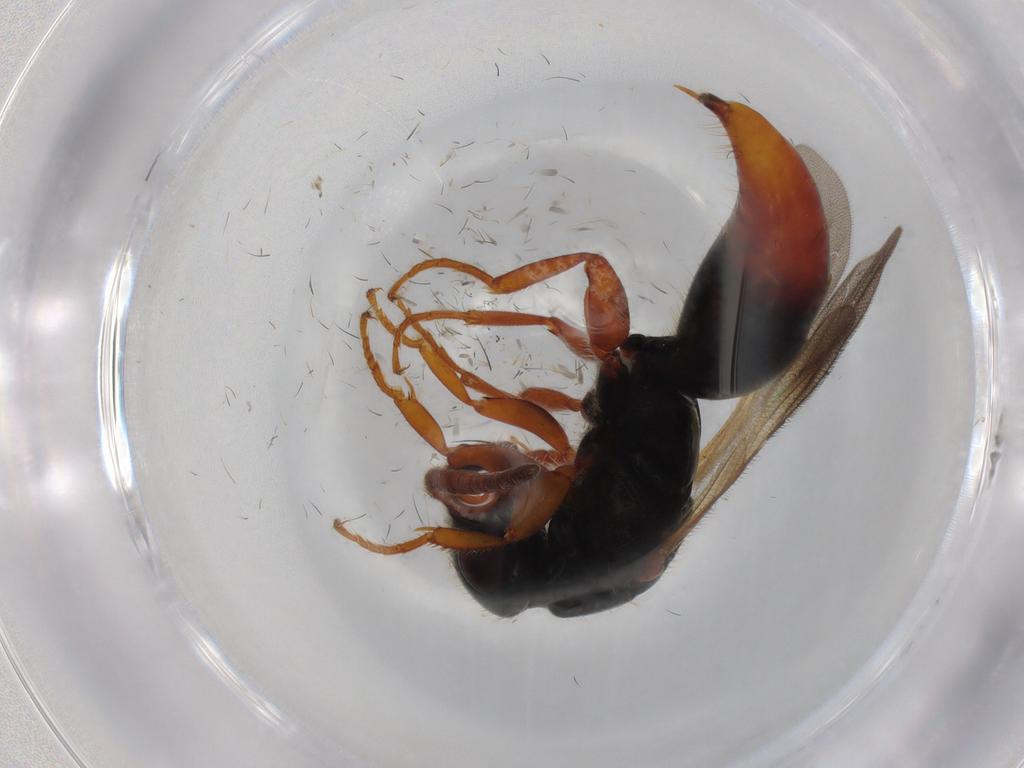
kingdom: Animalia
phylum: Arthropoda
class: Insecta
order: Hymenoptera
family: Bethylidae
